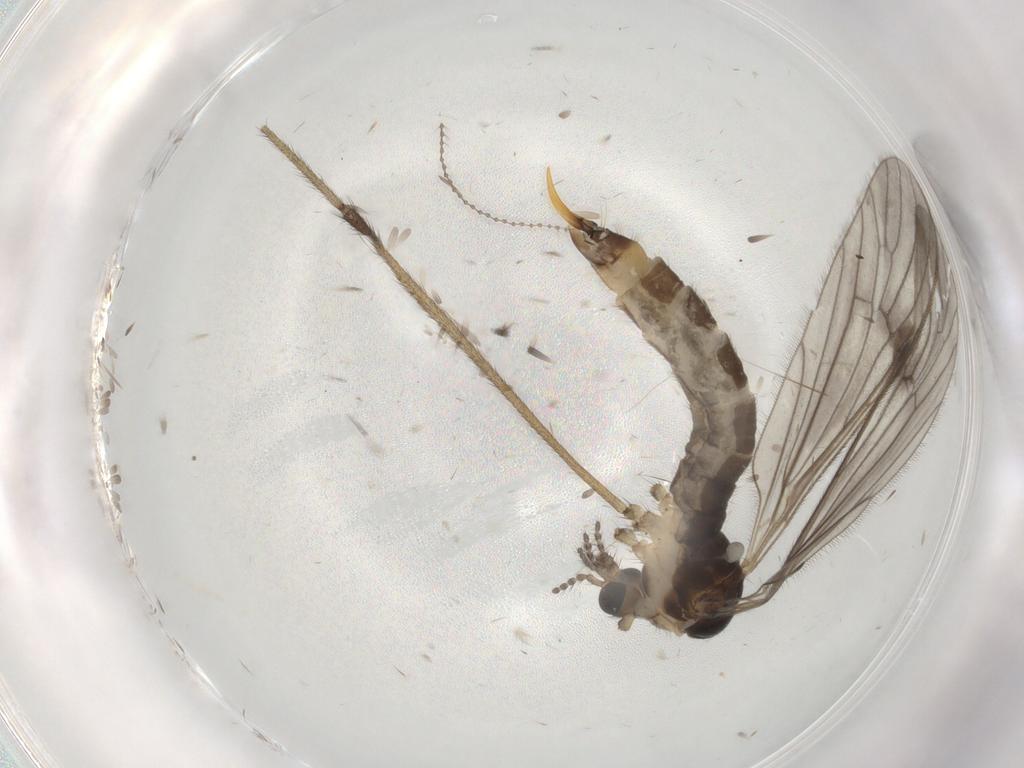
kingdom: Animalia
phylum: Arthropoda
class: Insecta
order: Diptera
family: Limoniidae
